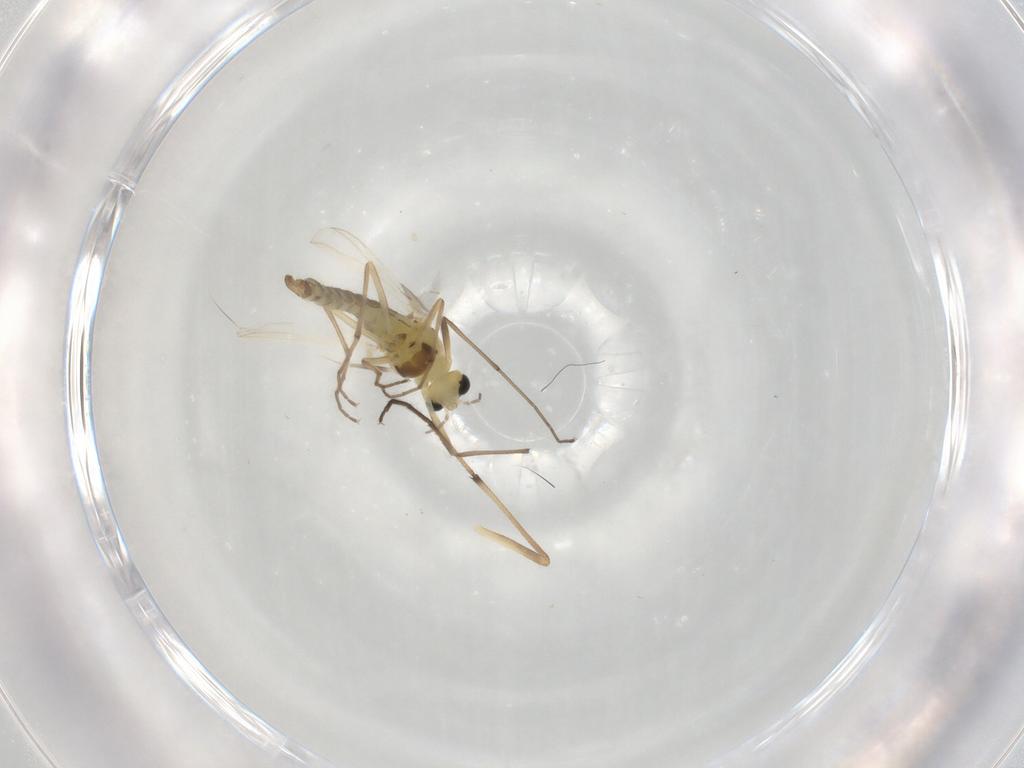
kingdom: Animalia
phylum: Arthropoda
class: Insecta
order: Diptera
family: Chironomidae
